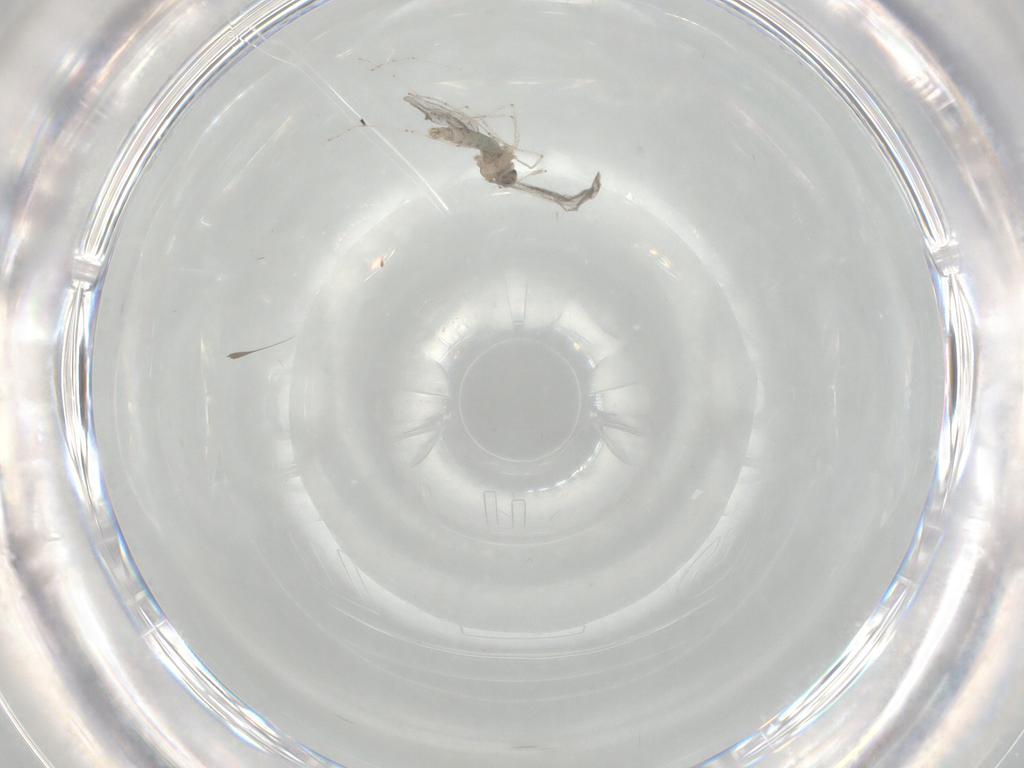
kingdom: Animalia
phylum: Arthropoda
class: Insecta
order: Diptera
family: Cecidomyiidae
